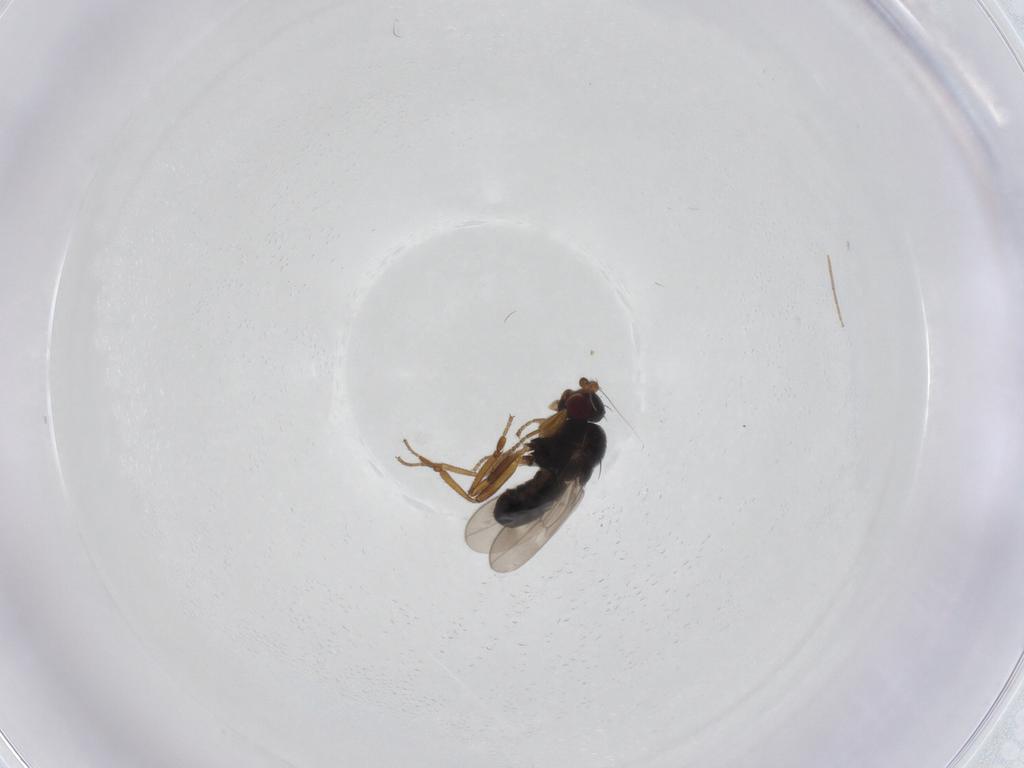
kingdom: Animalia
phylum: Arthropoda
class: Insecta
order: Diptera
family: Sphaeroceridae
